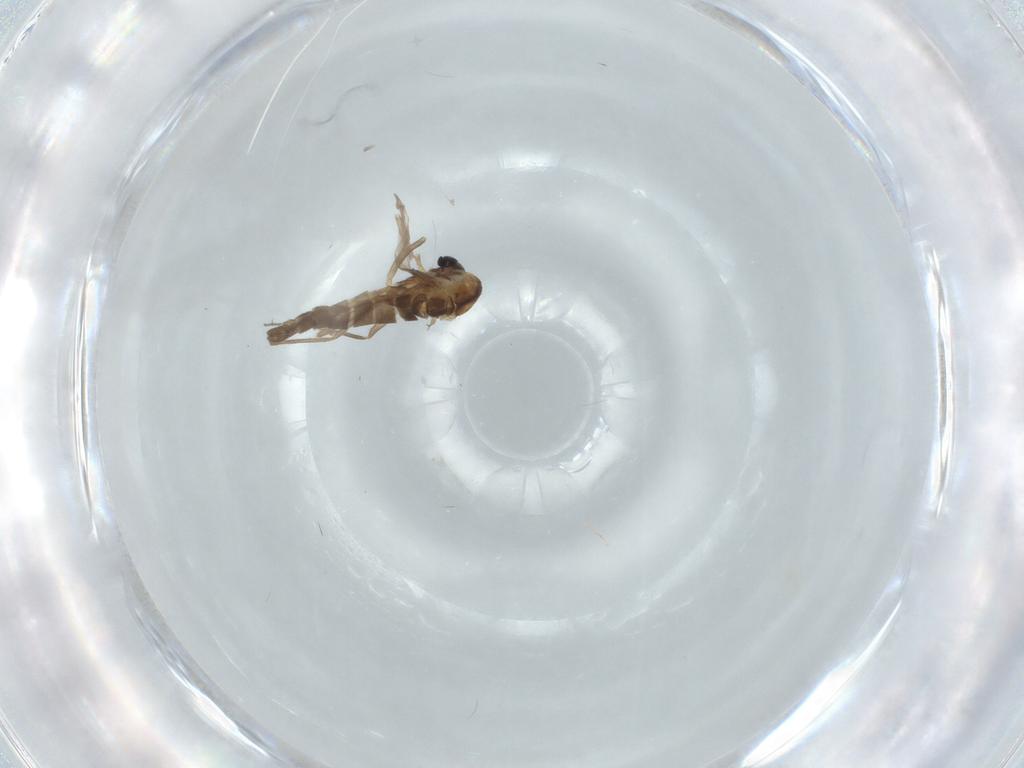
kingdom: Animalia
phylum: Arthropoda
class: Insecta
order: Diptera
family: Chironomidae
